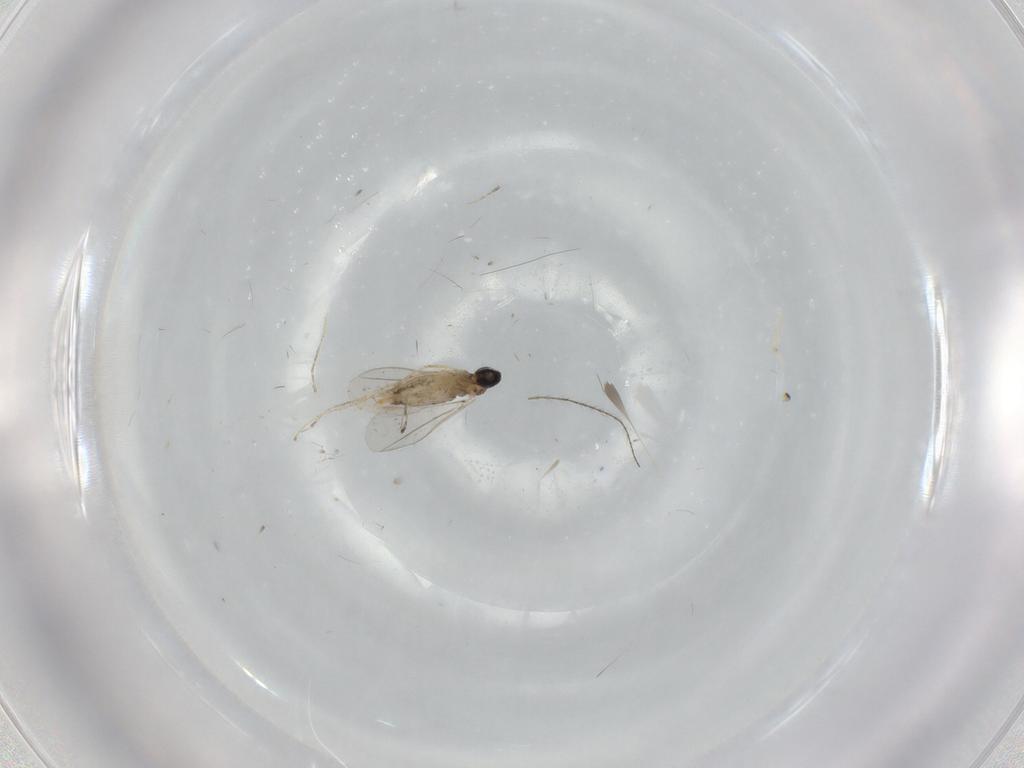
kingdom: Animalia
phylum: Arthropoda
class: Insecta
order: Diptera
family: Cecidomyiidae
